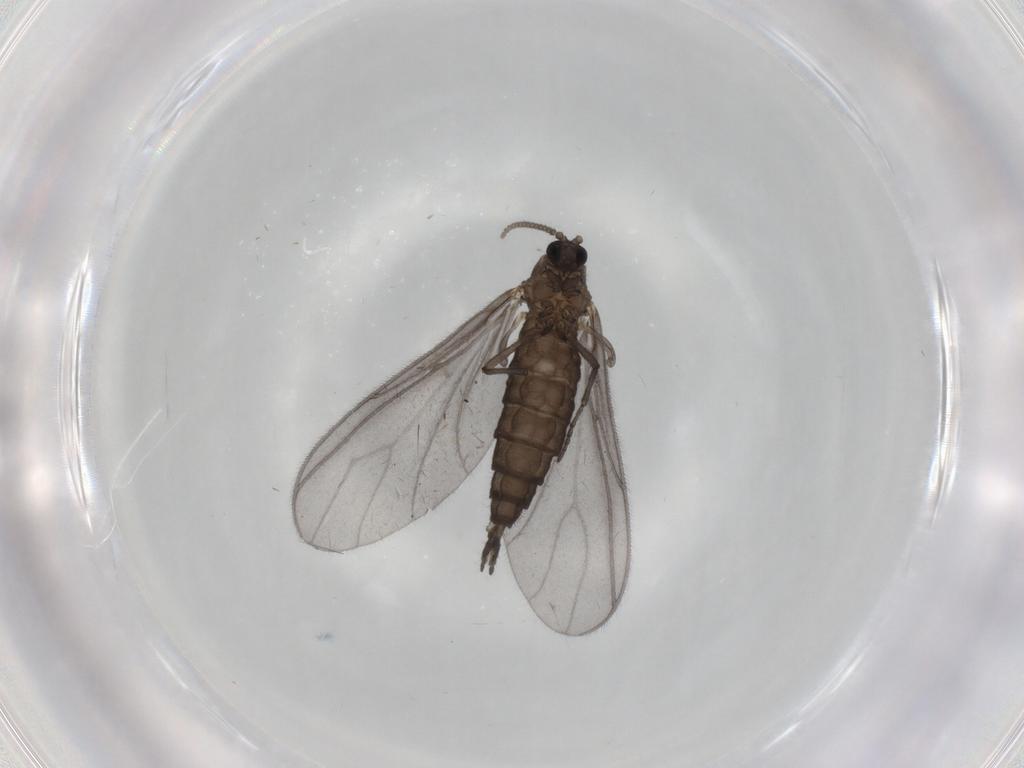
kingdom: Animalia
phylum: Arthropoda
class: Insecta
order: Diptera
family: Sciaridae
